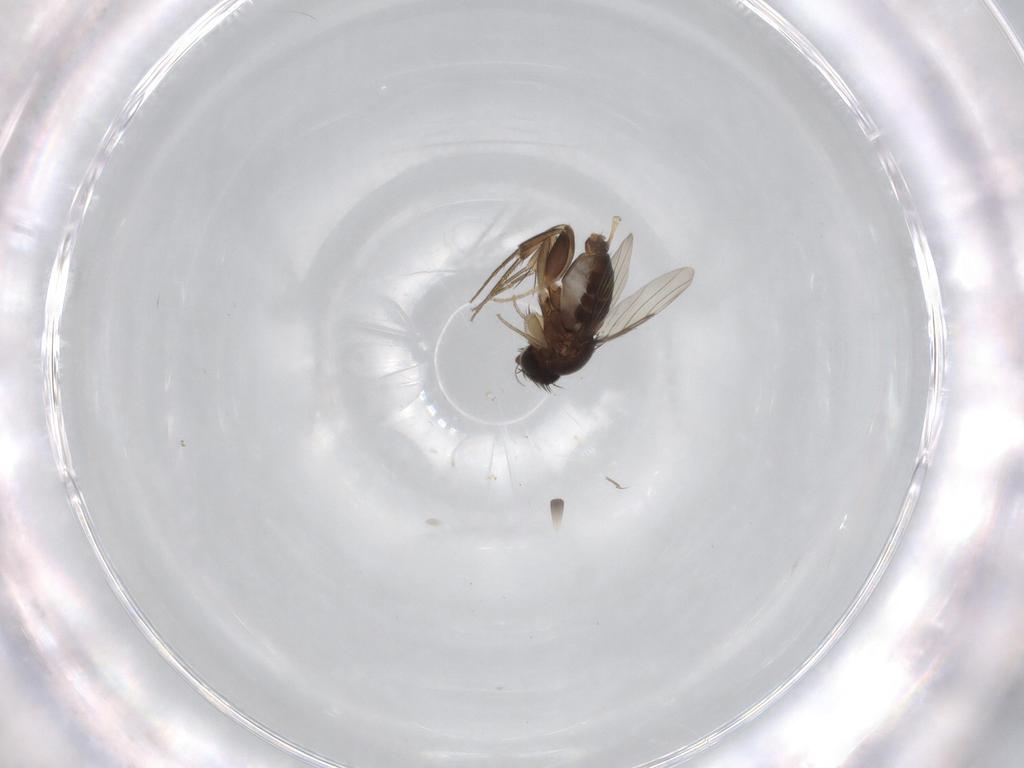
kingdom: Animalia
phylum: Arthropoda
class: Insecta
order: Diptera
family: Phoridae
